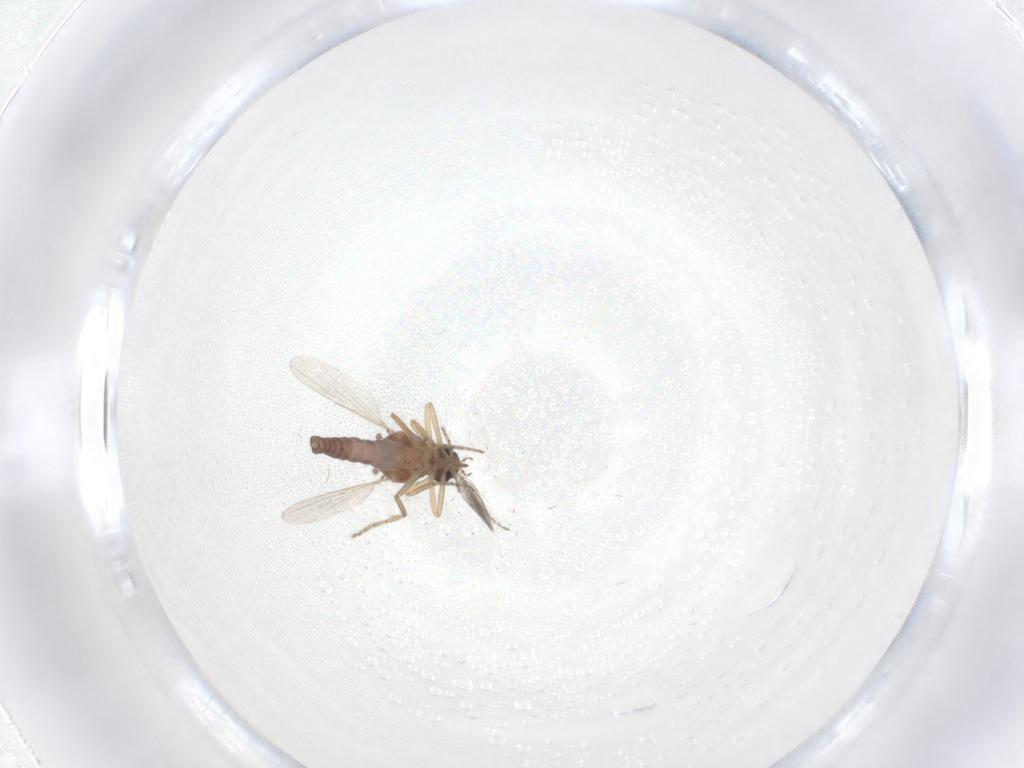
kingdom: Animalia
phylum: Arthropoda
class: Insecta
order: Diptera
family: Ceratopogonidae
